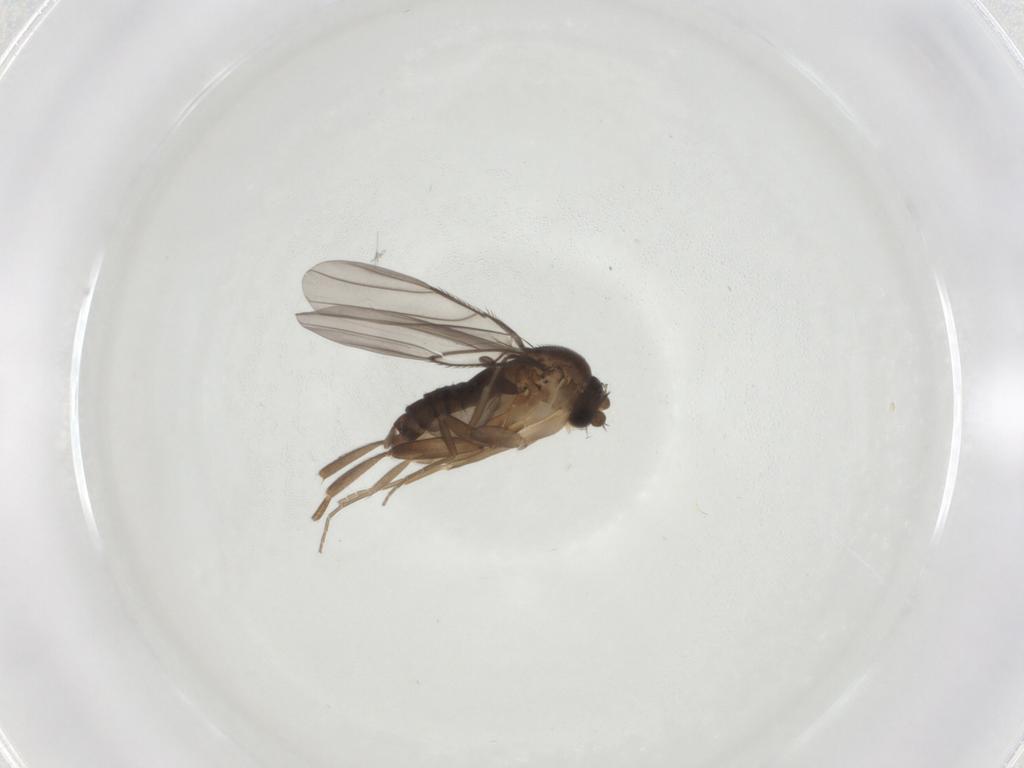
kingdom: Animalia
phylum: Arthropoda
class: Insecta
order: Diptera
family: Phoridae
